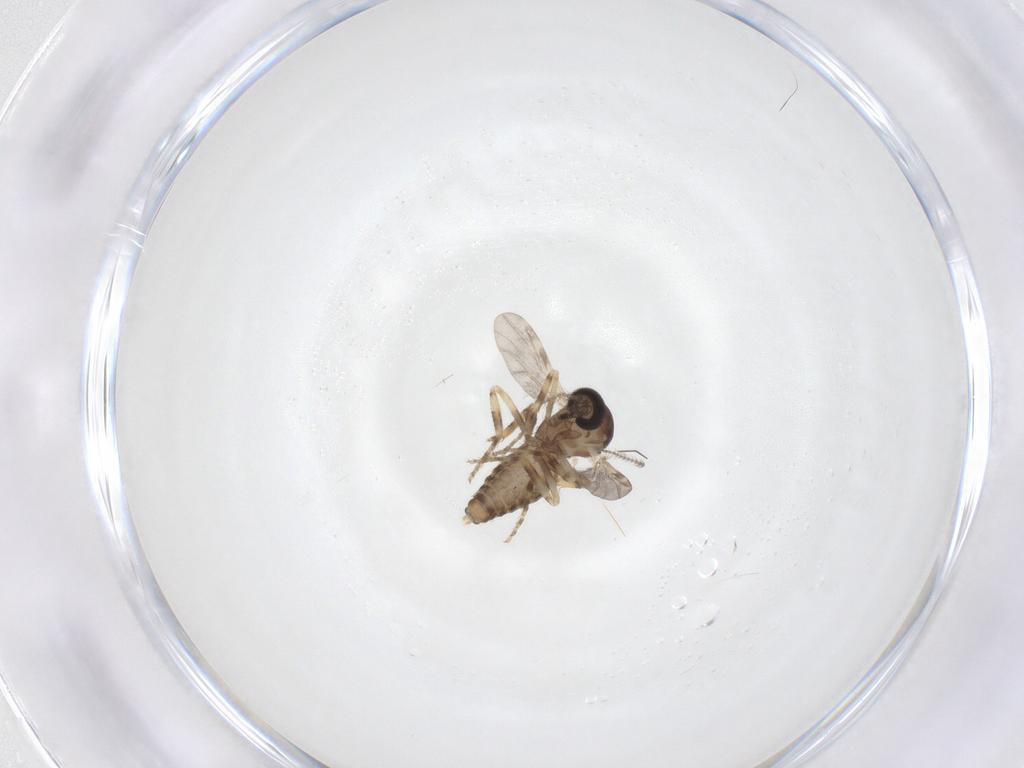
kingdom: Animalia
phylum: Arthropoda
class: Insecta
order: Diptera
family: Ceratopogonidae
